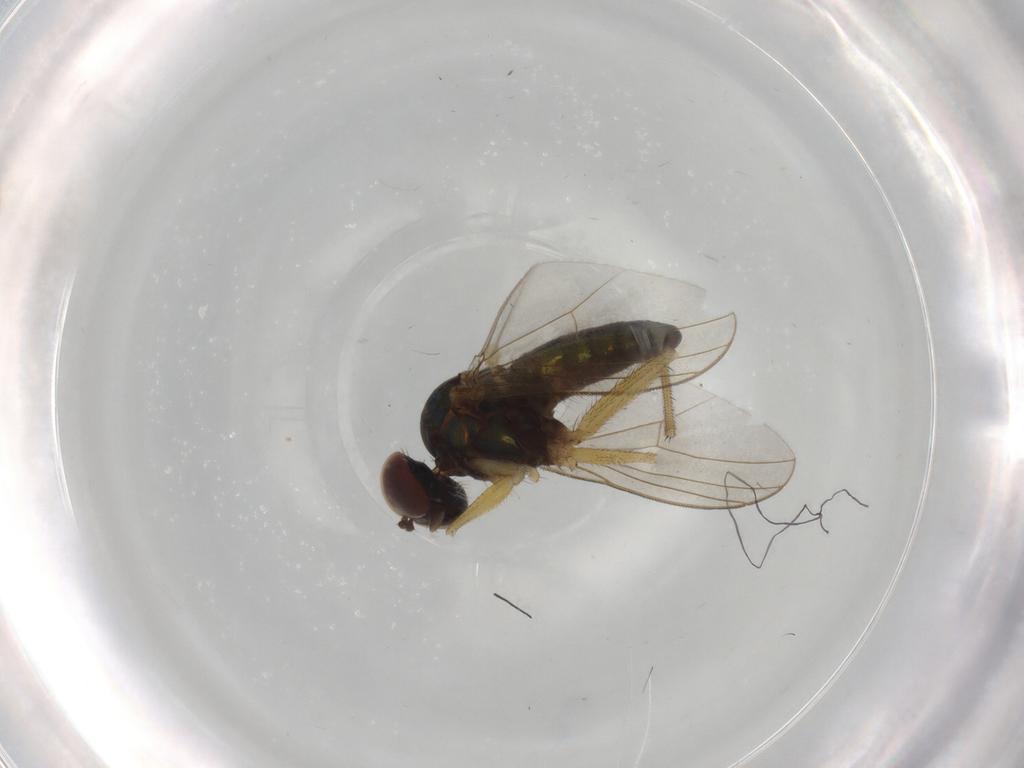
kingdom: Animalia
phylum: Arthropoda
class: Insecta
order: Diptera
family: Dolichopodidae
